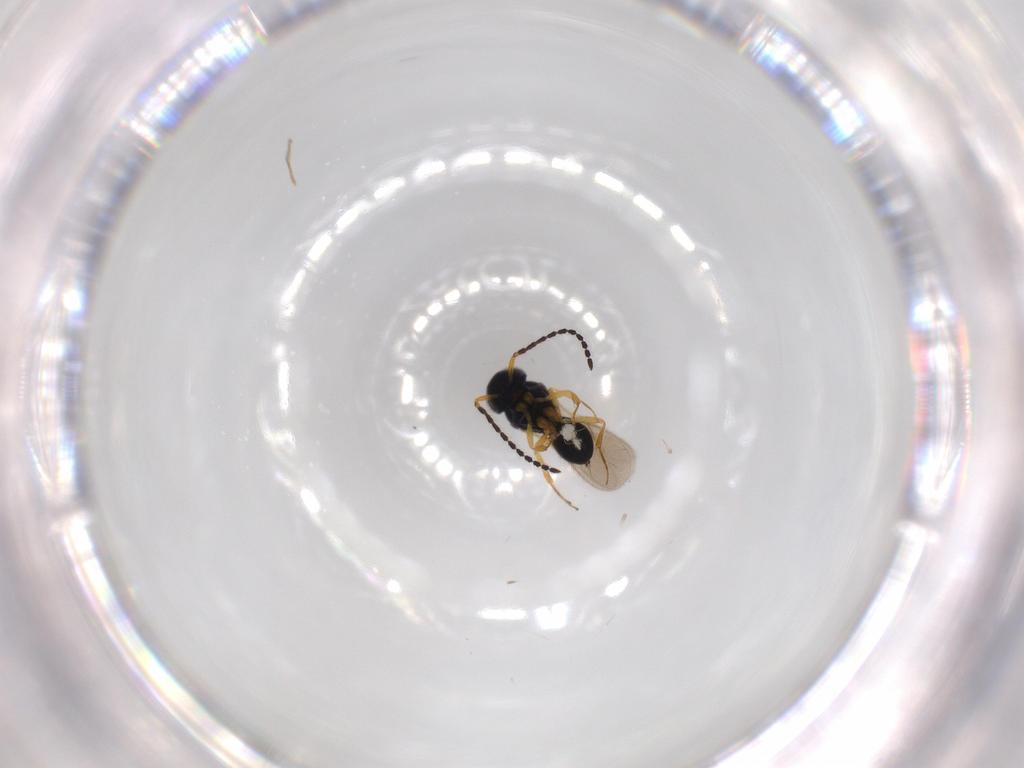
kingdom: Animalia
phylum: Arthropoda
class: Insecta
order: Hymenoptera
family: Scelionidae
